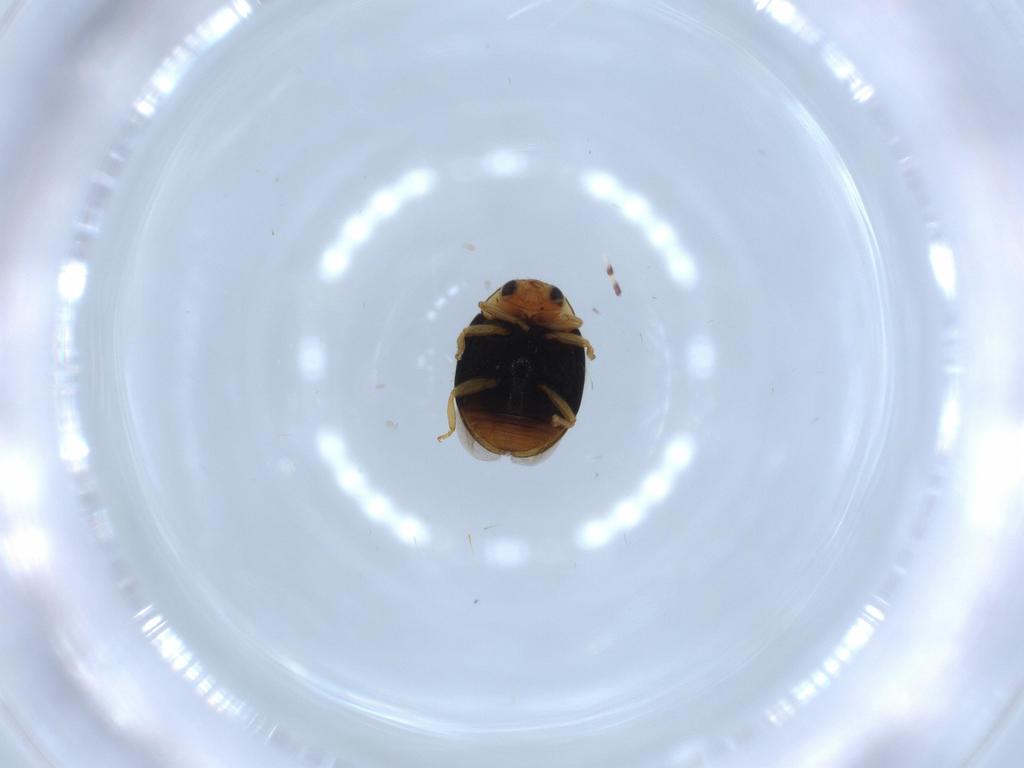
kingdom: Animalia
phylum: Arthropoda
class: Insecta
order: Coleoptera
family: Coccinellidae
